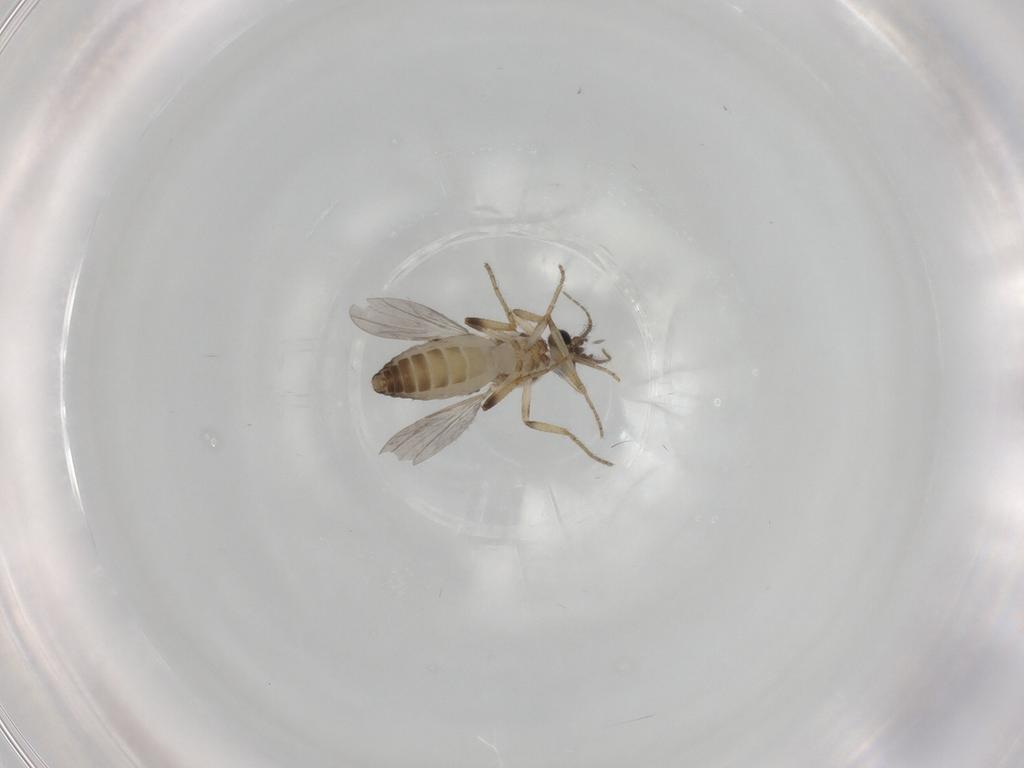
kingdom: Animalia
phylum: Arthropoda
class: Insecta
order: Diptera
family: Ceratopogonidae
